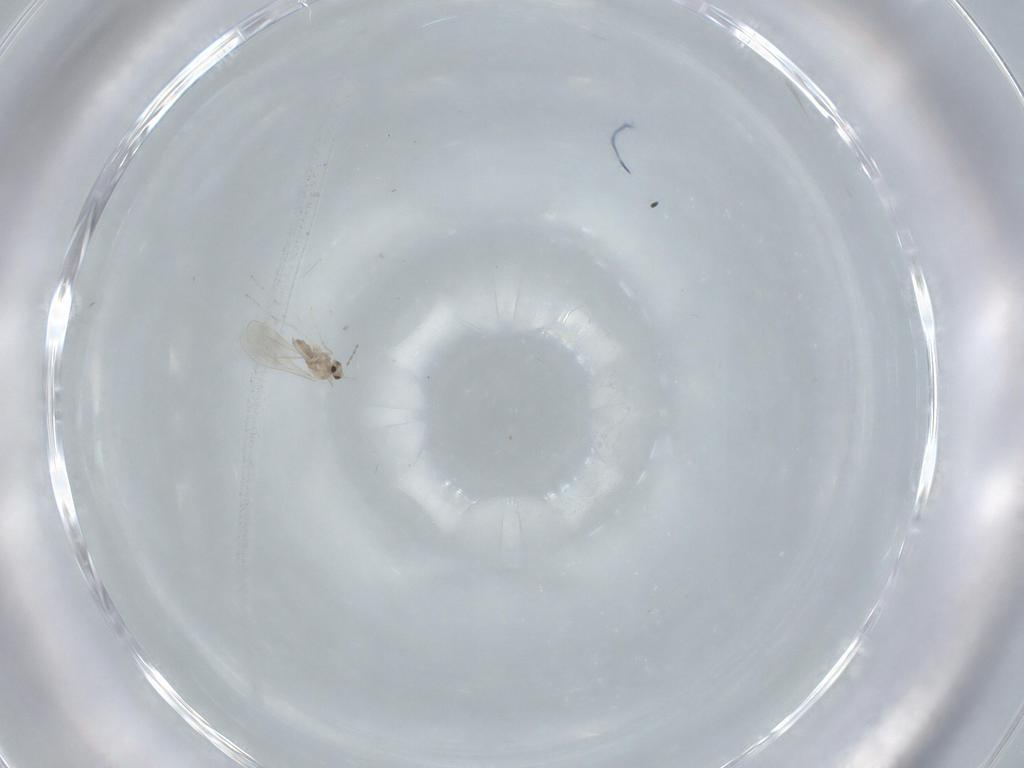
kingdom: Animalia
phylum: Arthropoda
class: Insecta
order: Diptera
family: Cecidomyiidae
